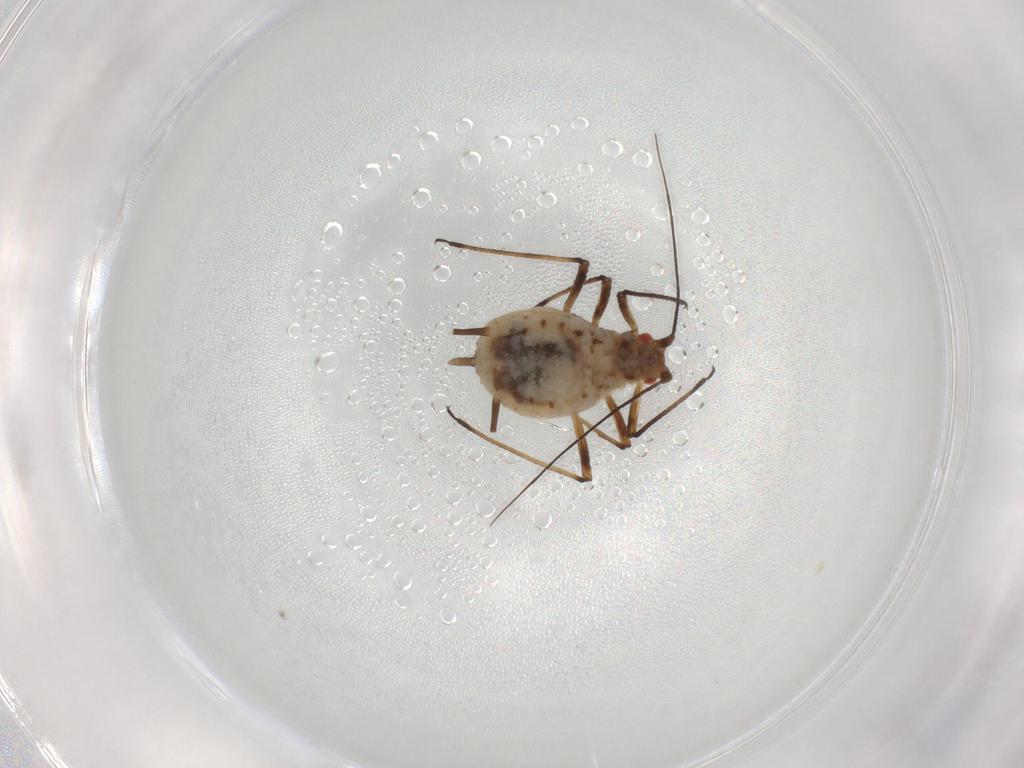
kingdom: Animalia
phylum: Arthropoda
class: Insecta
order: Hemiptera
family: Aphididae
